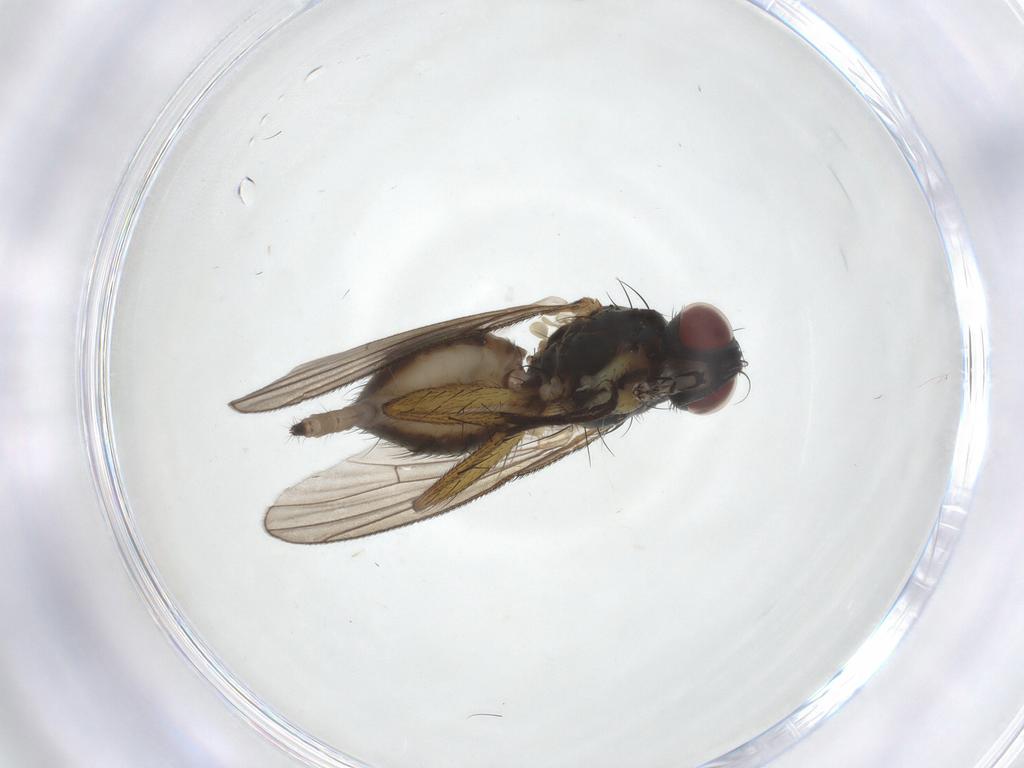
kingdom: Animalia
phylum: Arthropoda
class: Insecta
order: Diptera
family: Muscidae
